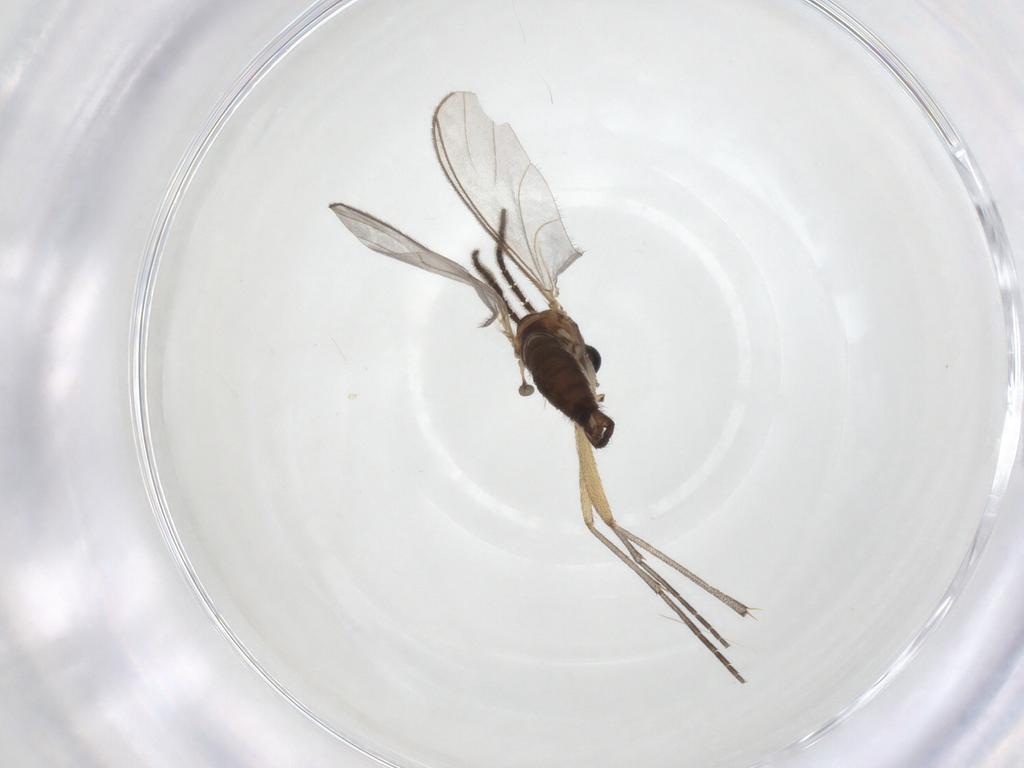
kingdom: Animalia
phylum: Arthropoda
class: Insecta
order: Diptera
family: Sciaridae
